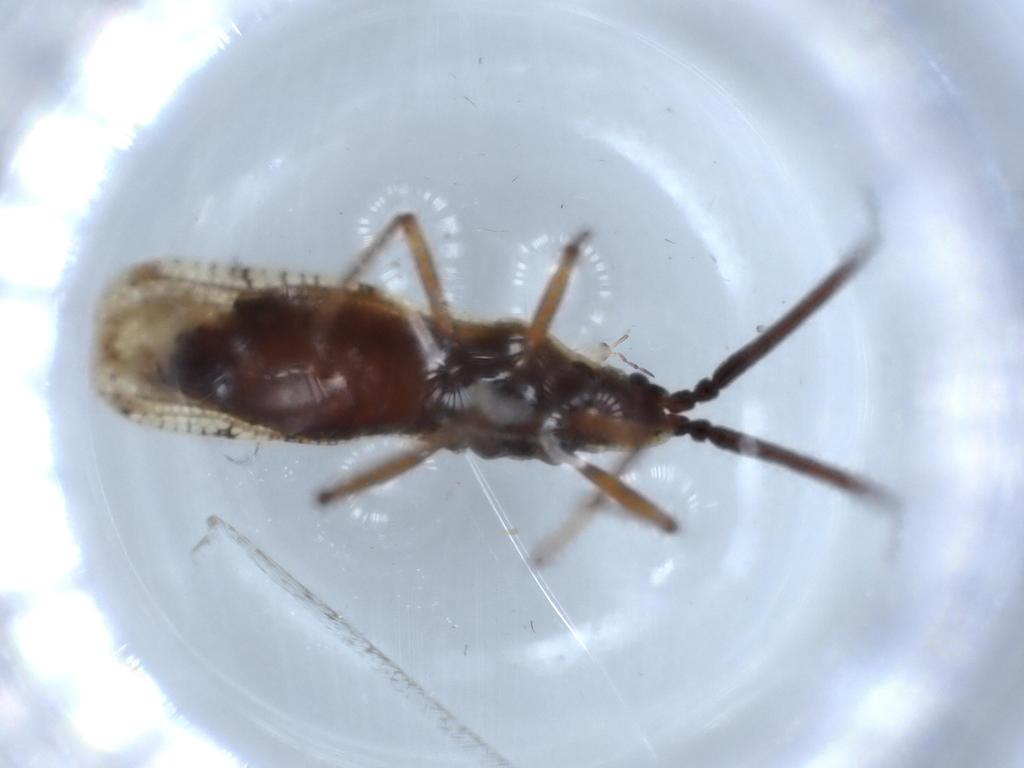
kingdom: Animalia
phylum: Arthropoda
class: Insecta
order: Hemiptera
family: Tingidae
